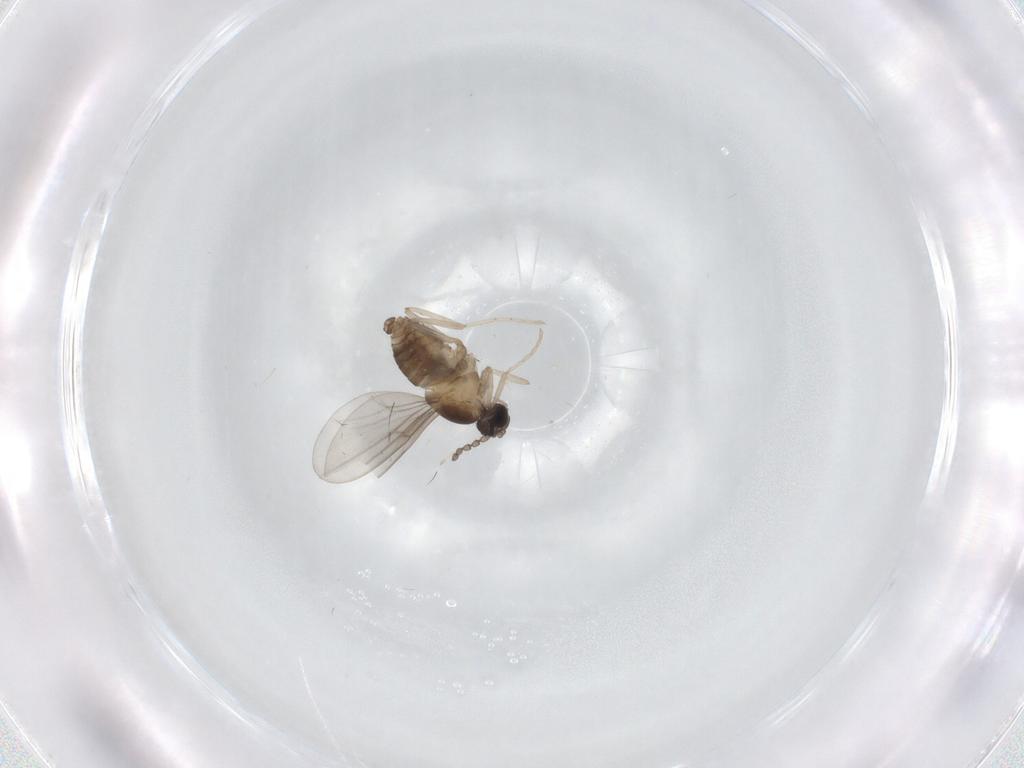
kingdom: Animalia
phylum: Arthropoda
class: Insecta
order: Diptera
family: Cecidomyiidae
